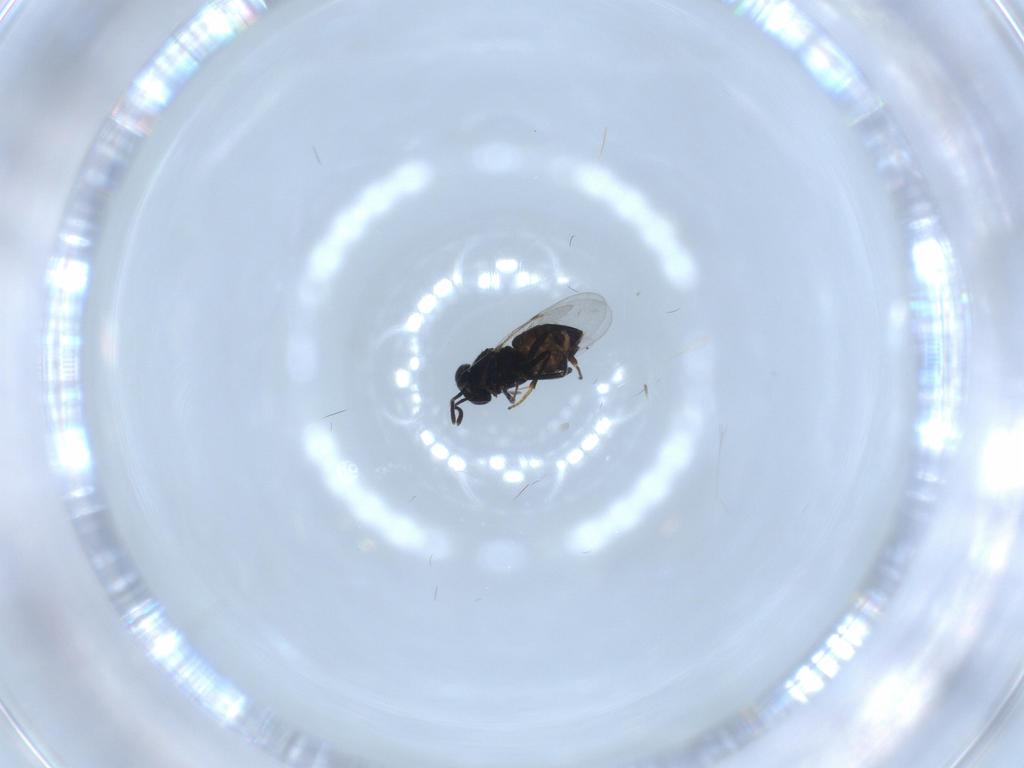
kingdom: Animalia
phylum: Arthropoda
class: Insecta
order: Hymenoptera
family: Encyrtidae
